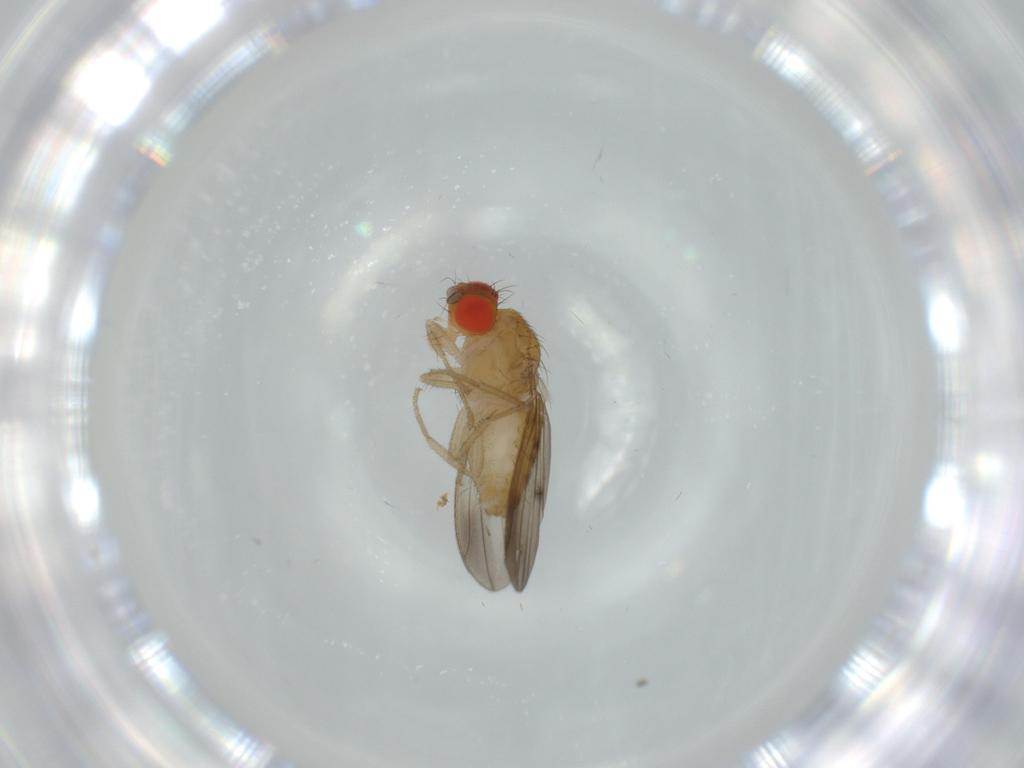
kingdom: Animalia
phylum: Arthropoda
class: Insecta
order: Diptera
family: Drosophilidae
